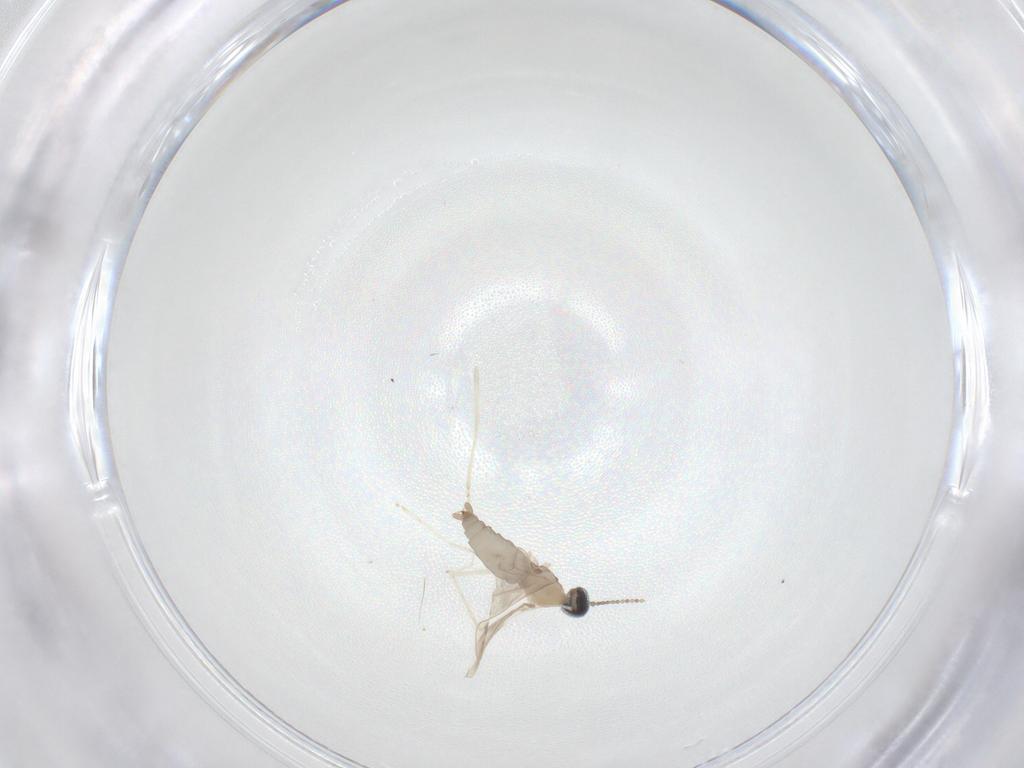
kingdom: Animalia
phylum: Arthropoda
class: Insecta
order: Diptera
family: Cecidomyiidae
